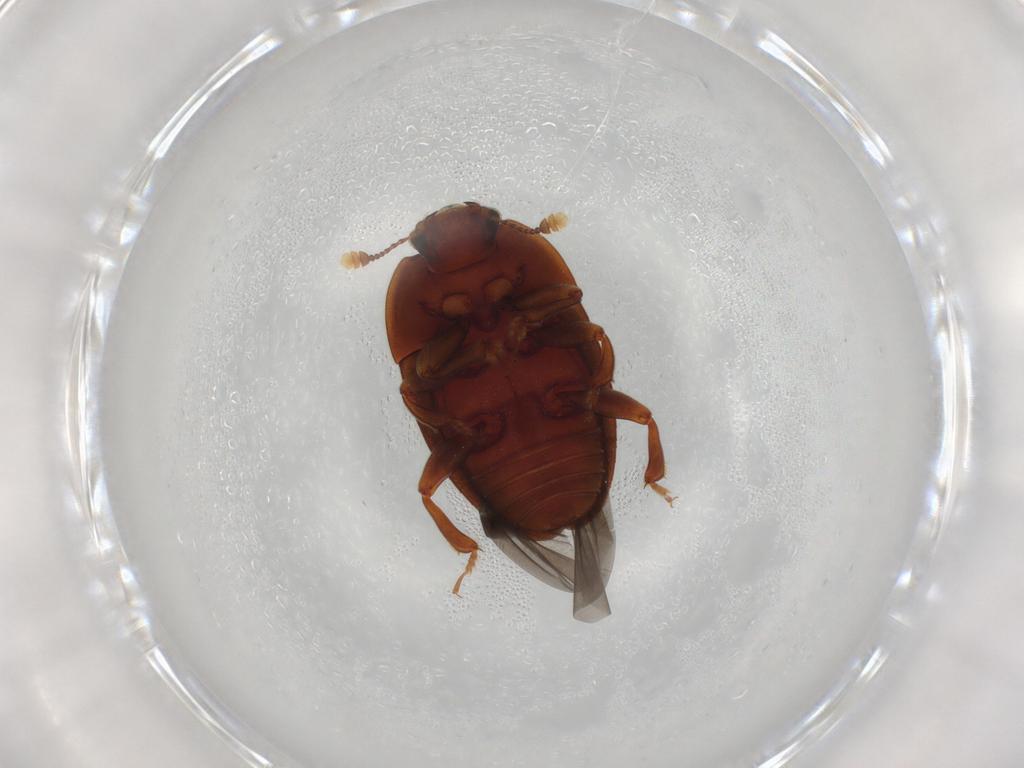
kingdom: Animalia
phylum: Arthropoda
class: Insecta
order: Coleoptera
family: Nitidulidae
